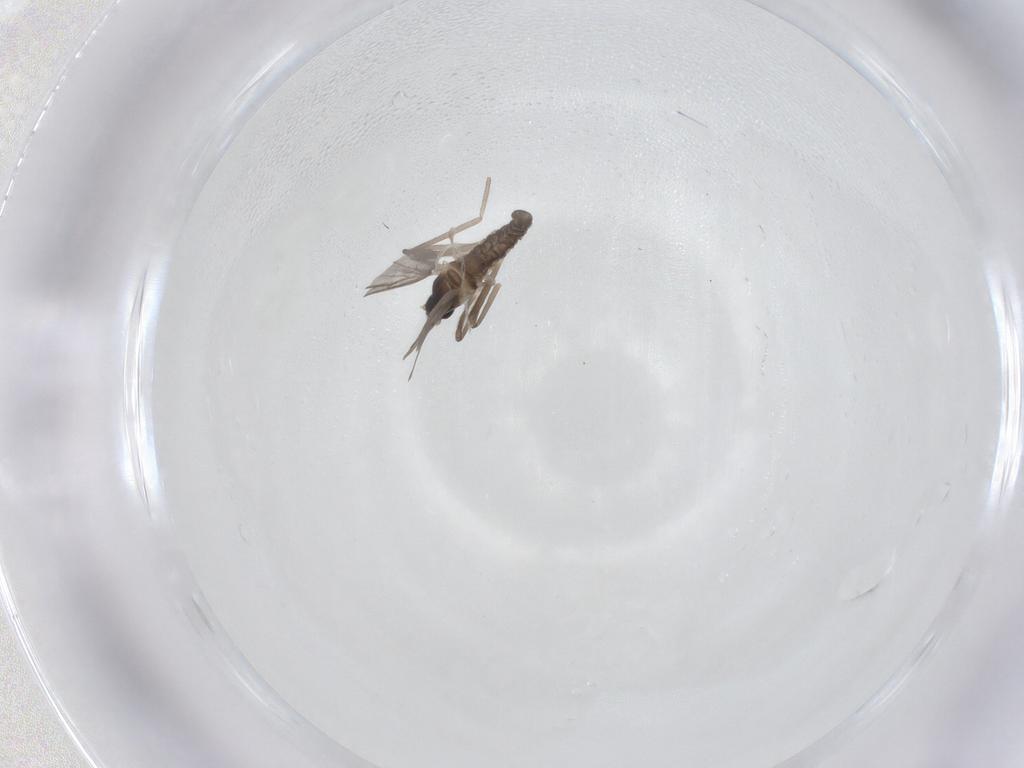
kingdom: Animalia
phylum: Arthropoda
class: Insecta
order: Diptera
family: Cecidomyiidae
